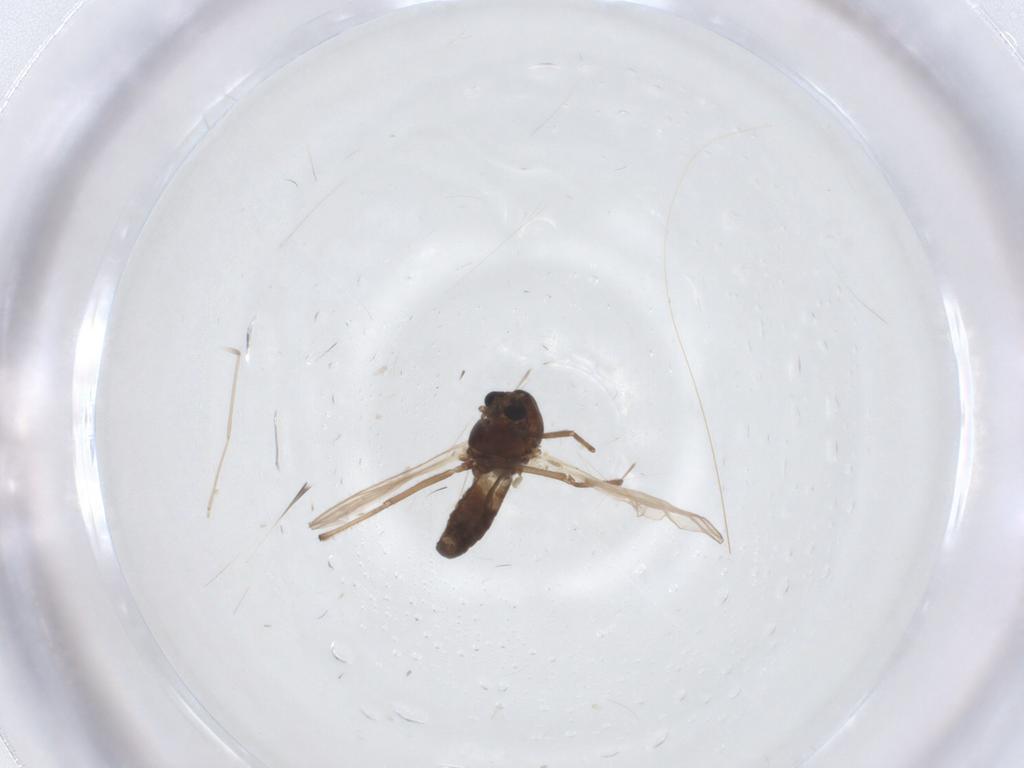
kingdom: Animalia
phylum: Arthropoda
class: Insecta
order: Diptera
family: Chironomidae
